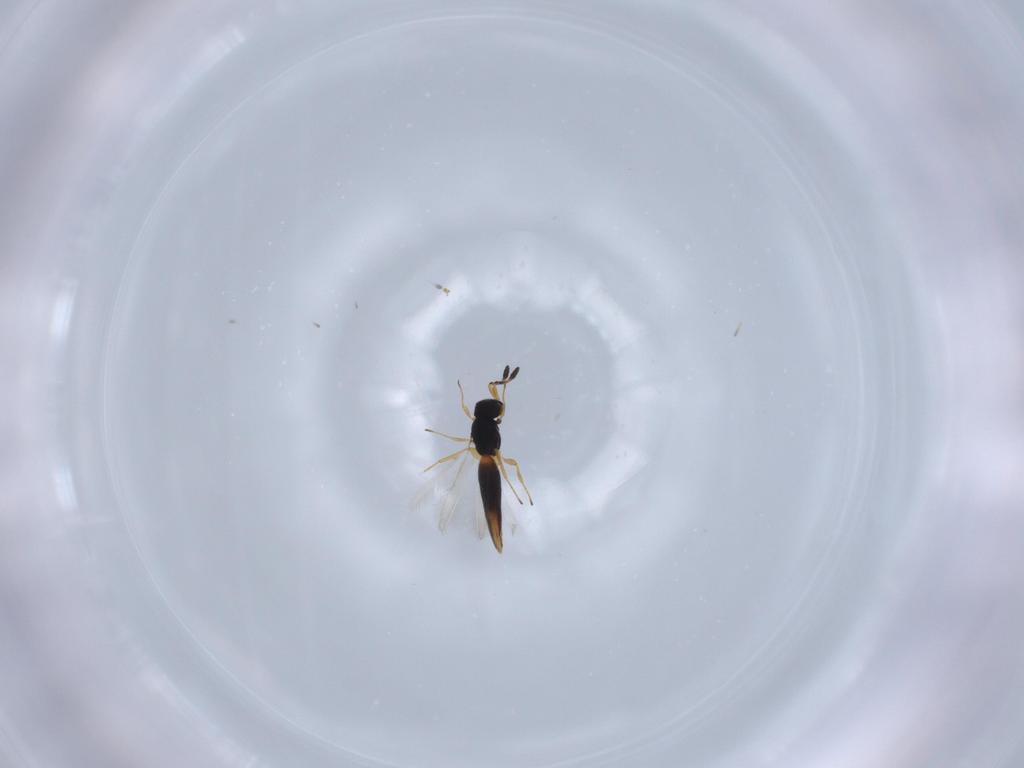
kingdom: Animalia
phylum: Arthropoda
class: Insecta
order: Hymenoptera
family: Scelionidae
